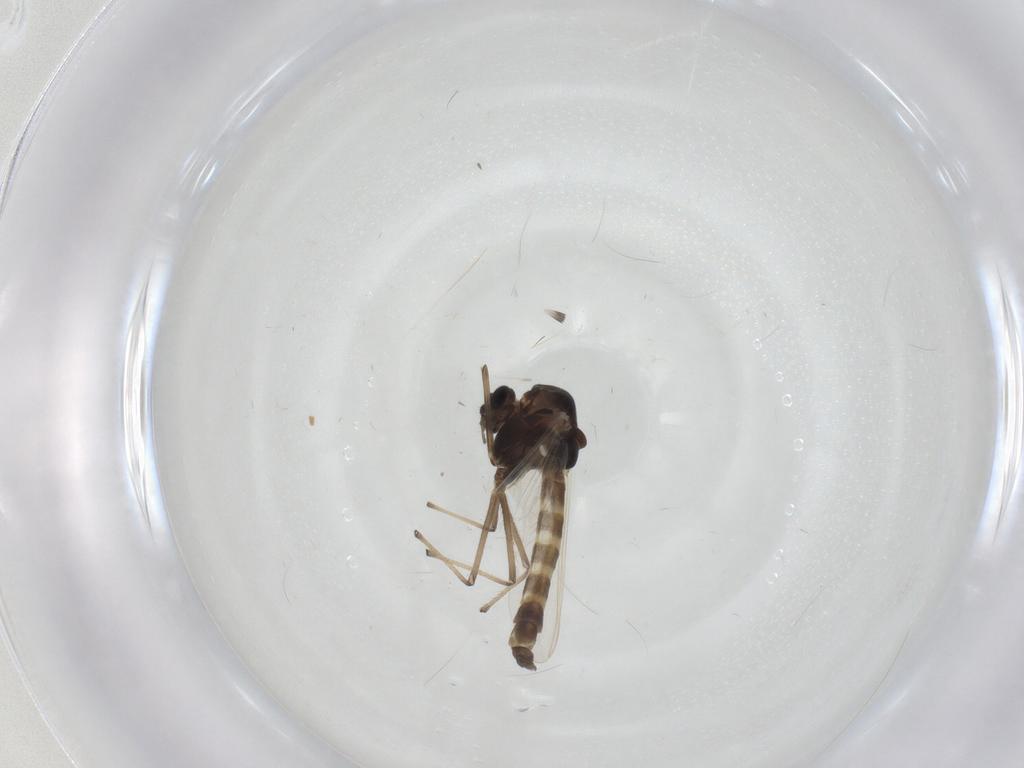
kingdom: Animalia
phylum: Arthropoda
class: Insecta
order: Diptera
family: Chironomidae
